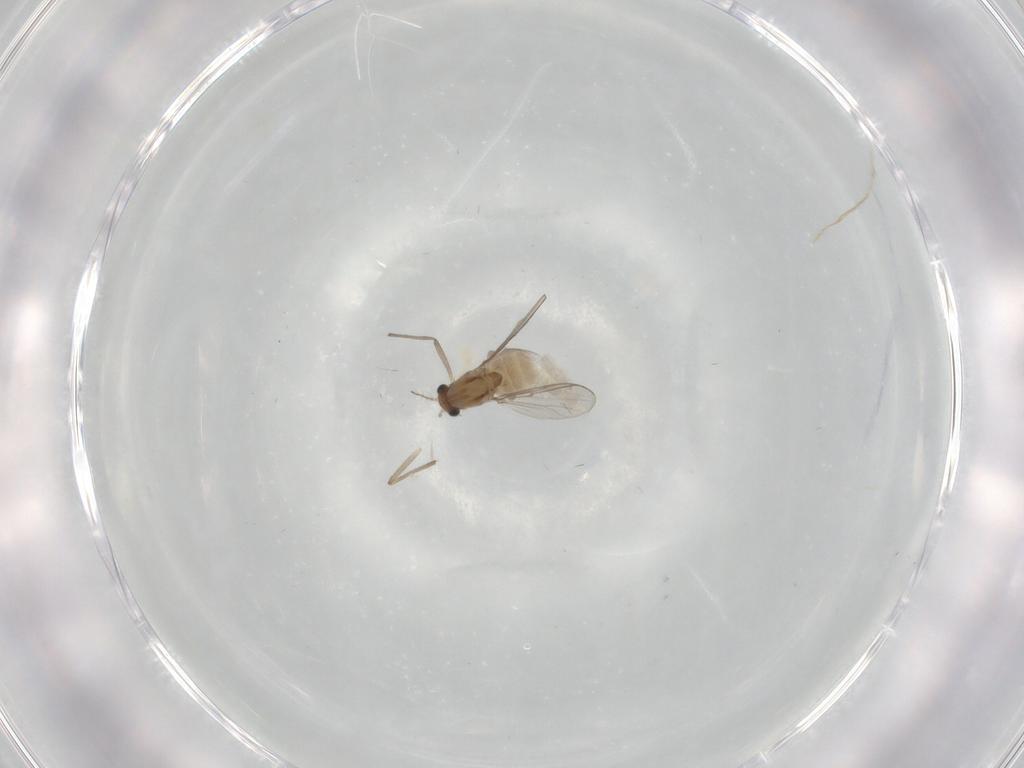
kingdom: Animalia
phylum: Arthropoda
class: Insecta
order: Diptera
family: Chironomidae
